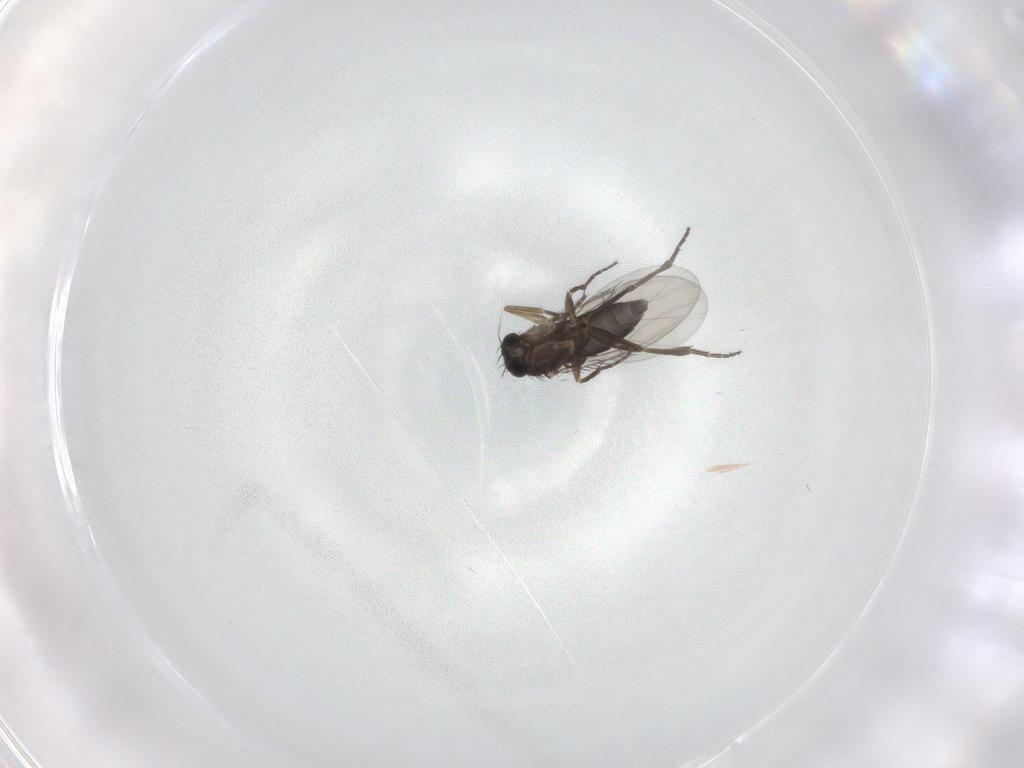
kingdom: Animalia
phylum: Arthropoda
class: Insecta
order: Diptera
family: Phoridae
